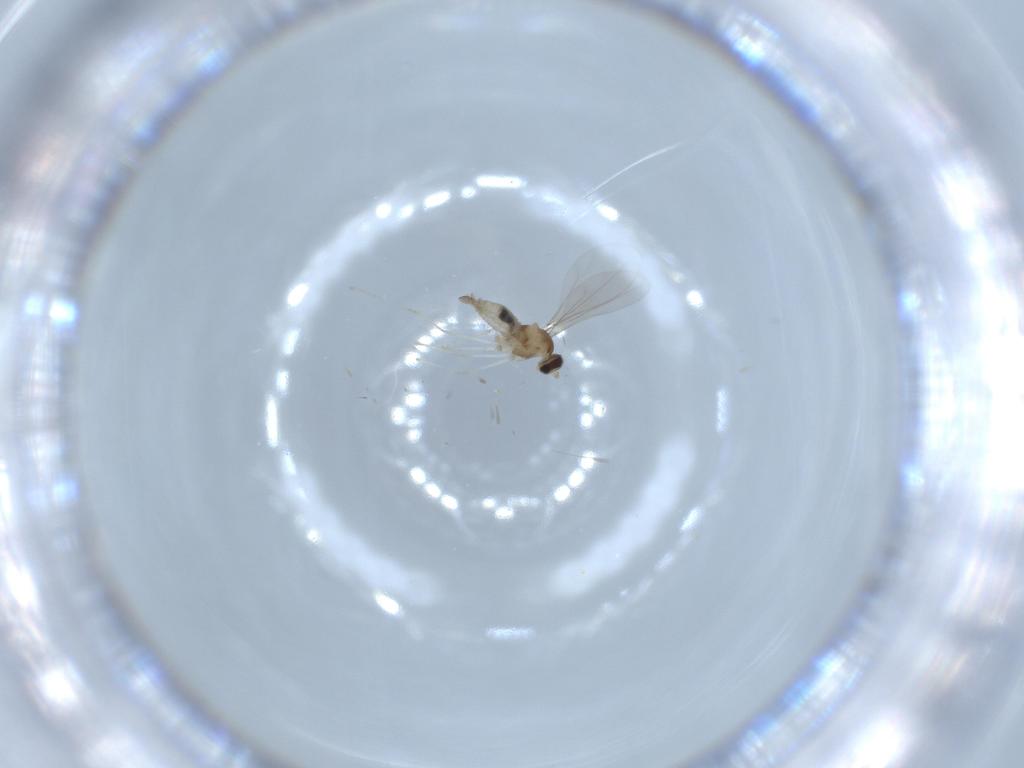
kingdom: Animalia
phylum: Arthropoda
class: Insecta
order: Diptera
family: Cecidomyiidae
